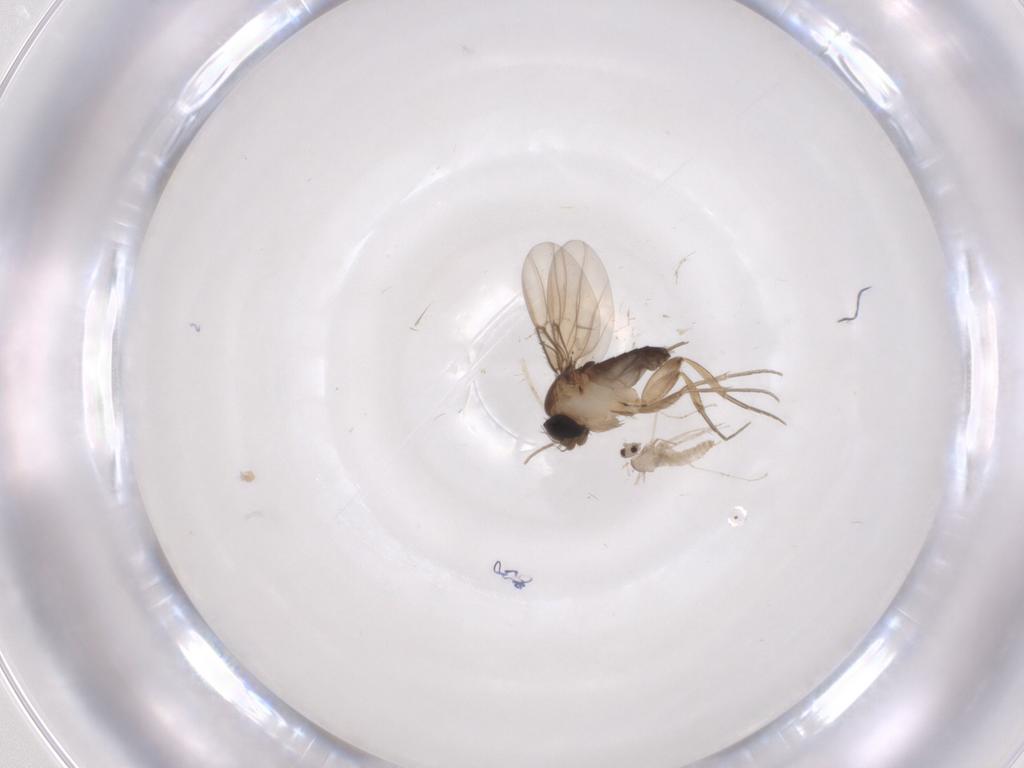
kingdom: Animalia
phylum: Arthropoda
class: Insecta
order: Diptera
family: Phoridae
